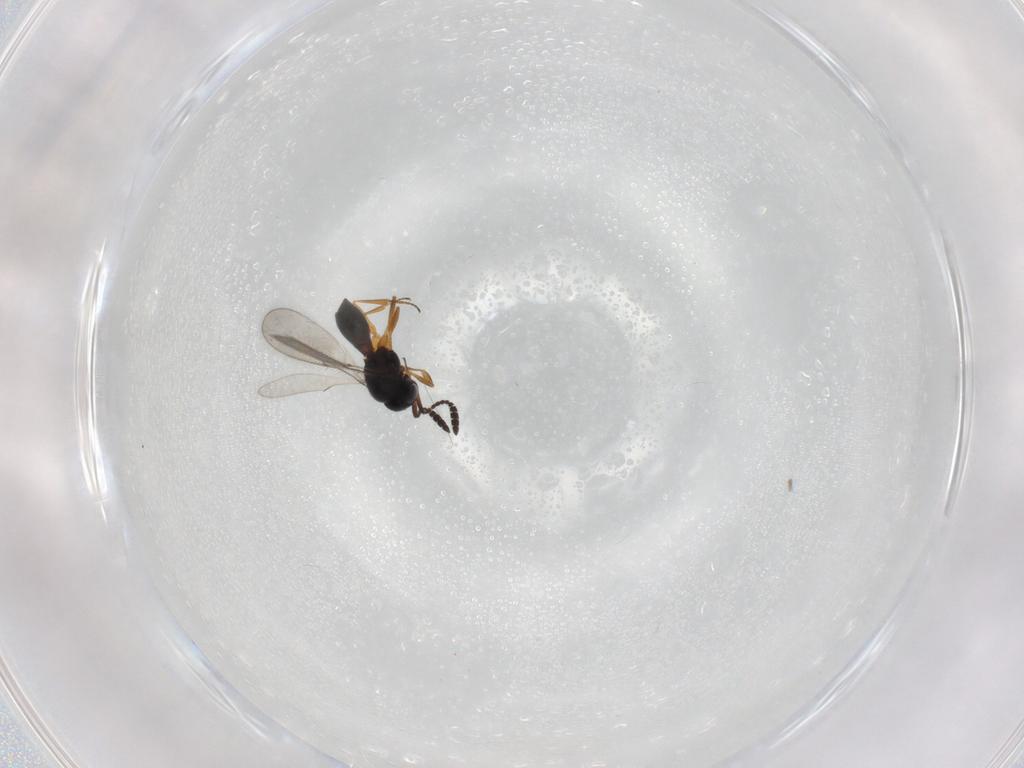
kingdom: Animalia
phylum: Arthropoda
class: Insecta
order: Hymenoptera
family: Scelionidae
